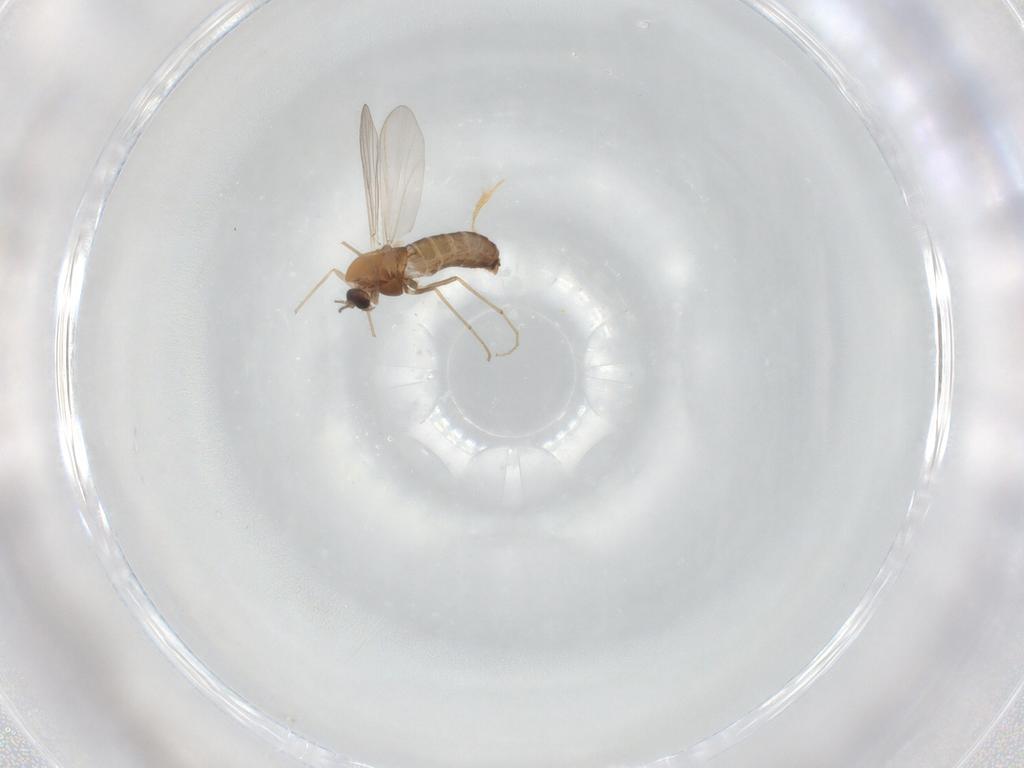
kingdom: Animalia
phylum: Arthropoda
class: Insecta
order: Diptera
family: Chironomidae
